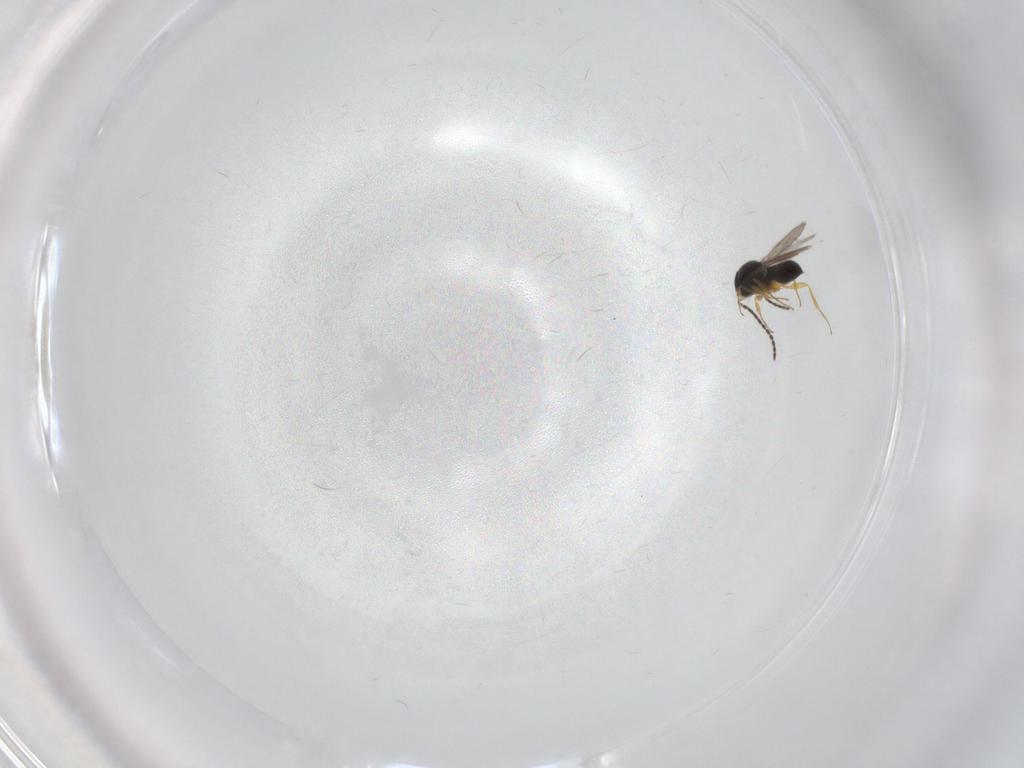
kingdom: Animalia
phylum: Arthropoda
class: Insecta
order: Hymenoptera
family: Scelionidae
